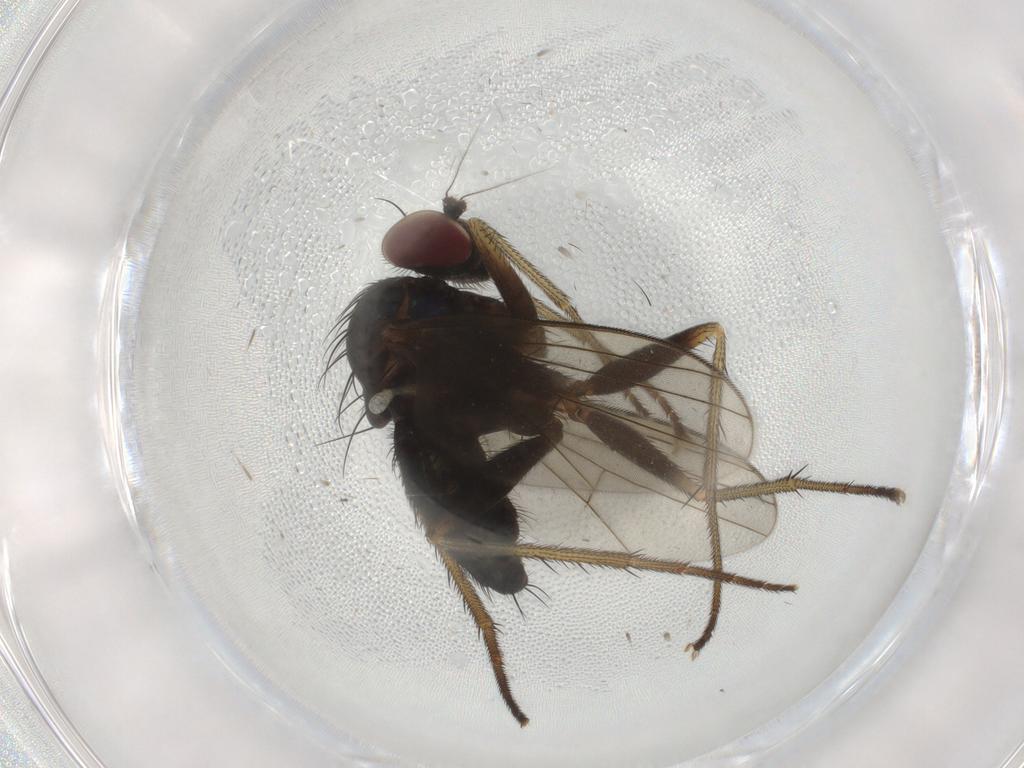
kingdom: Animalia
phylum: Arthropoda
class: Insecta
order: Diptera
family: Dolichopodidae
